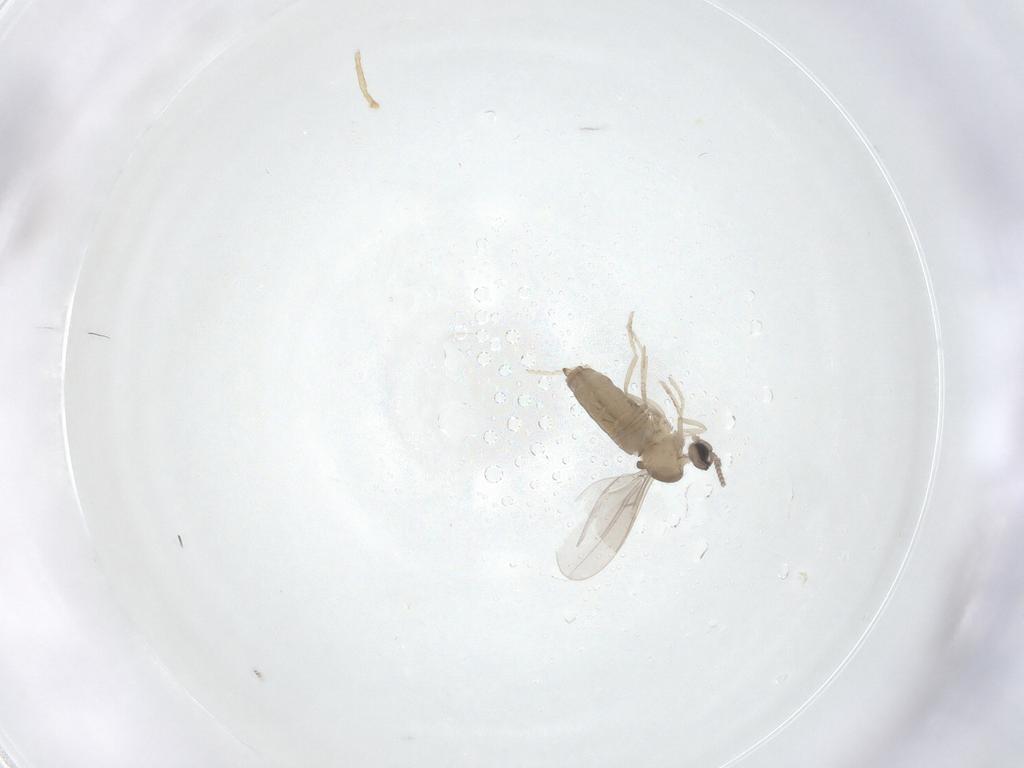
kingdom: Animalia
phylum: Arthropoda
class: Insecta
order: Diptera
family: Cecidomyiidae
